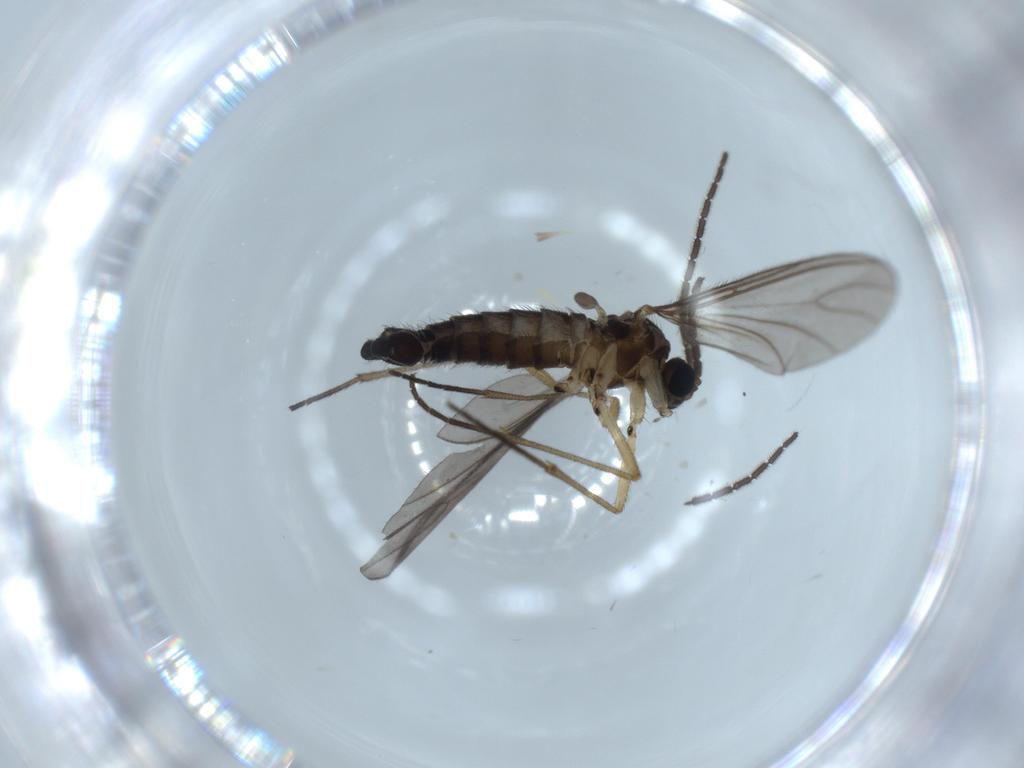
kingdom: Animalia
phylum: Arthropoda
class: Insecta
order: Diptera
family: Sciaridae
